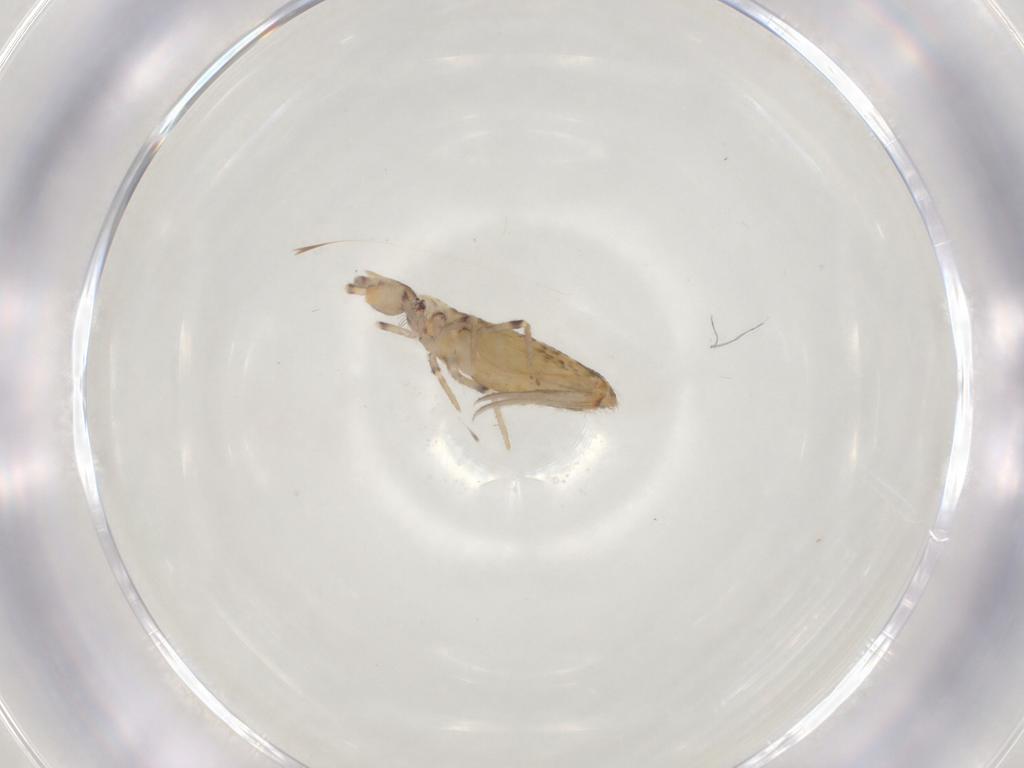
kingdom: Animalia
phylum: Arthropoda
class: Collembola
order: Entomobryomorpha
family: Entomobryidae
